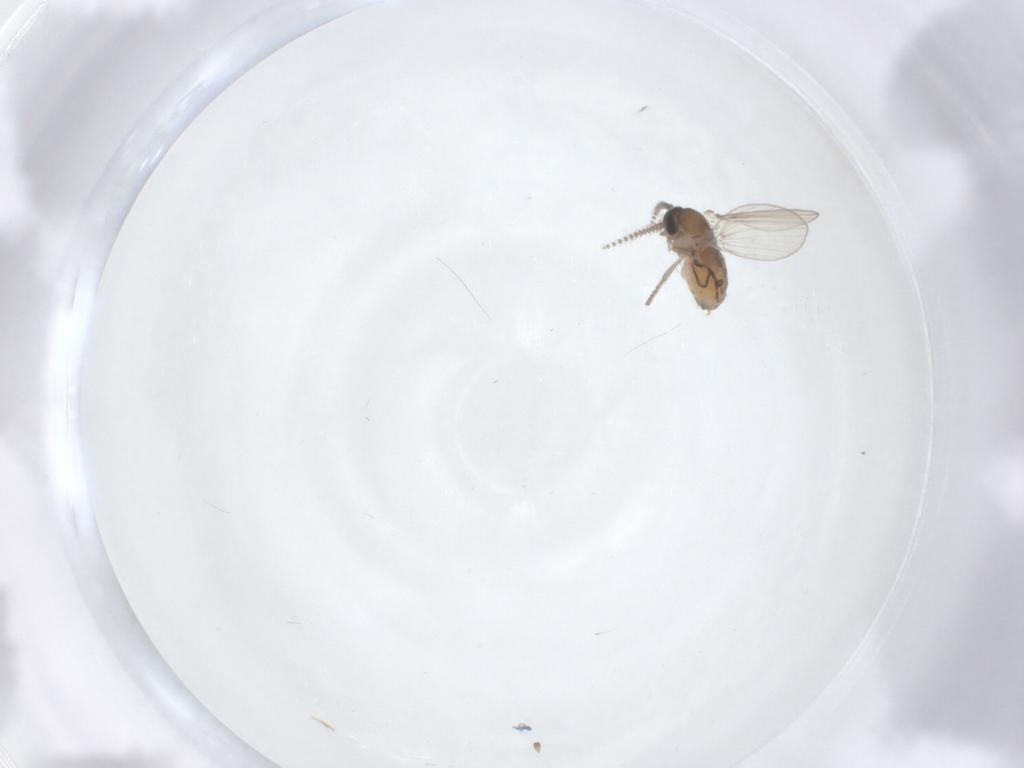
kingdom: Animalia
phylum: Arthropoda
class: Insecta
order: Diptera
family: Psychodidae
